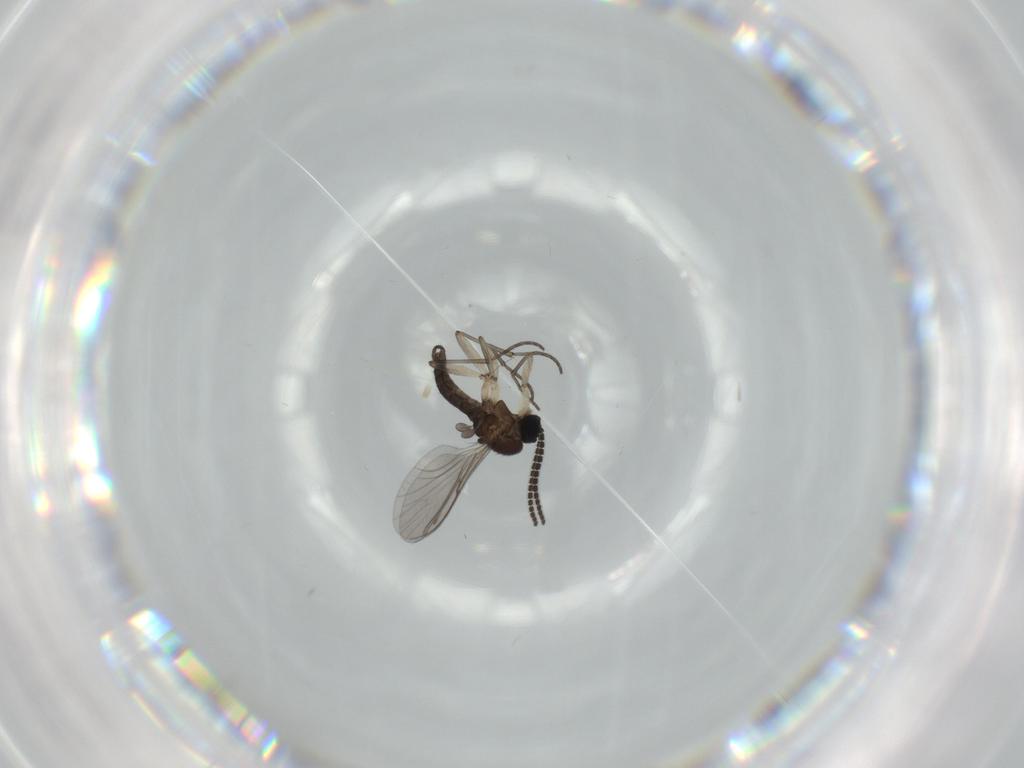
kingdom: Animalia
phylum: Arthropoda
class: Insecta
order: Diptera
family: Sciaridae
